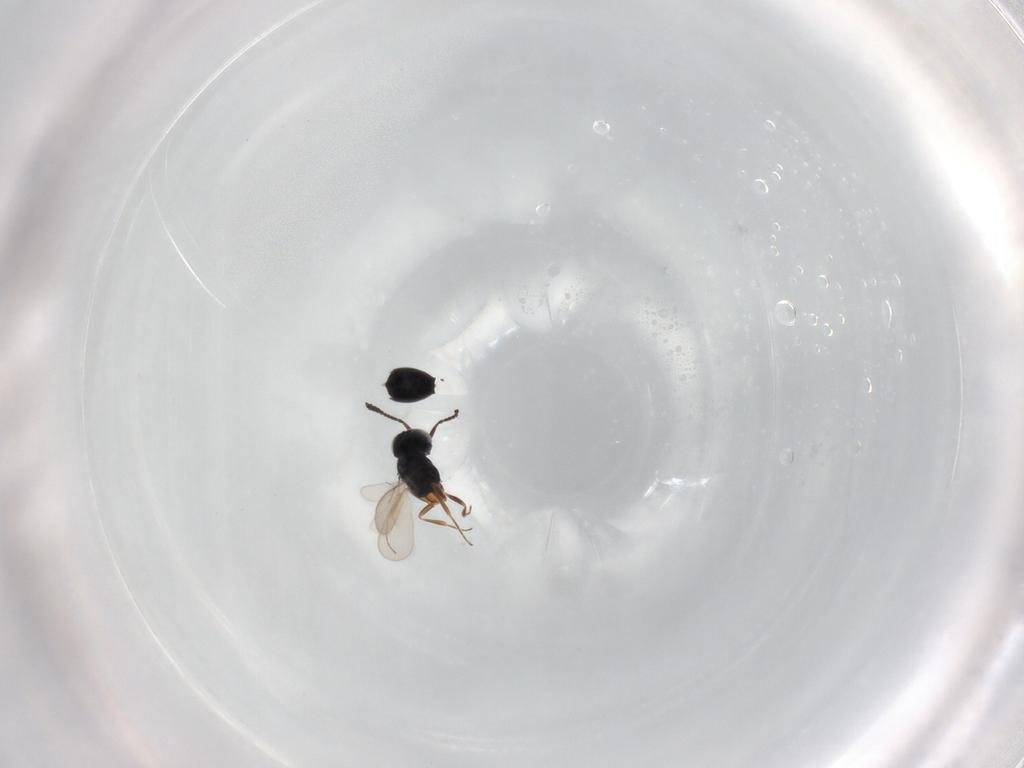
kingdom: Animalia
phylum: Arthropoda
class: Insecta
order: Hymenoptera
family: Scelionidae
